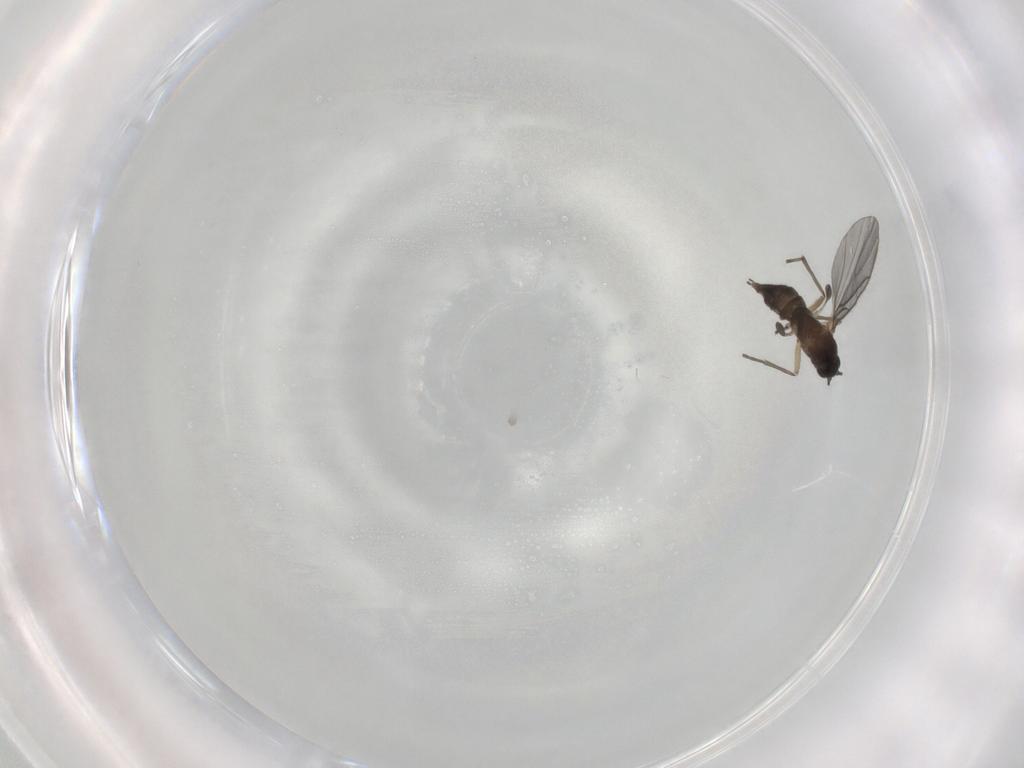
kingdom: Animalia
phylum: Arthropoda
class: Insecta
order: Diptera
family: Sciaridae
